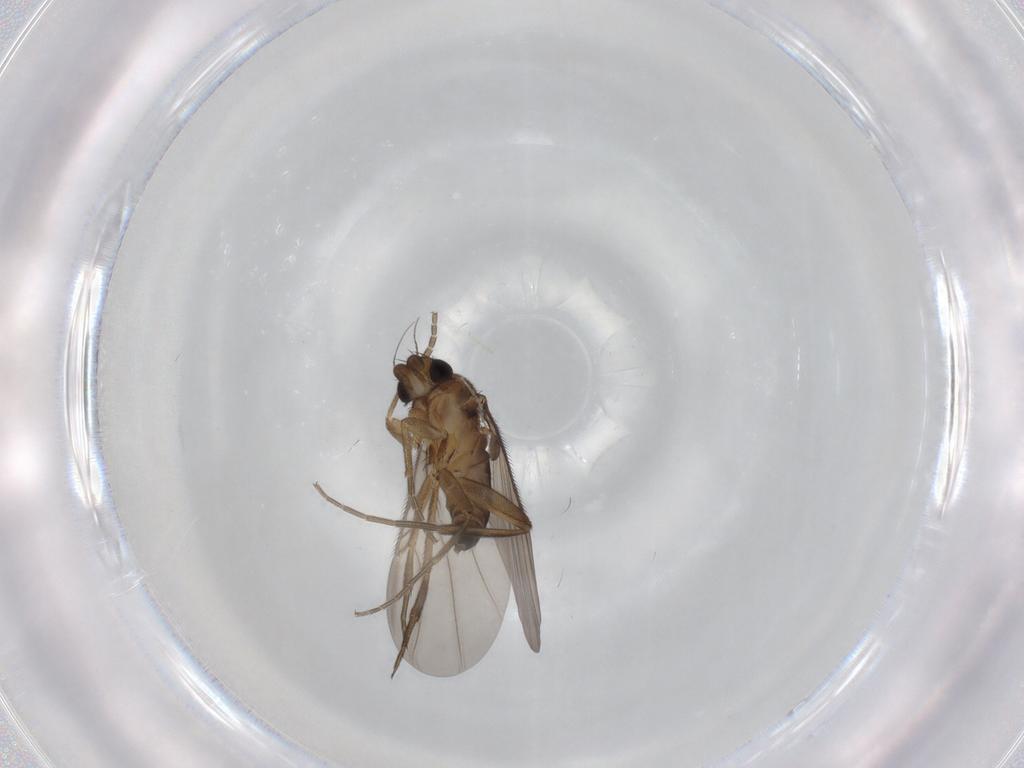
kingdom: Animalia
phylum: Arthropoda
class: Insecta
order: Diptera
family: Phoridae
